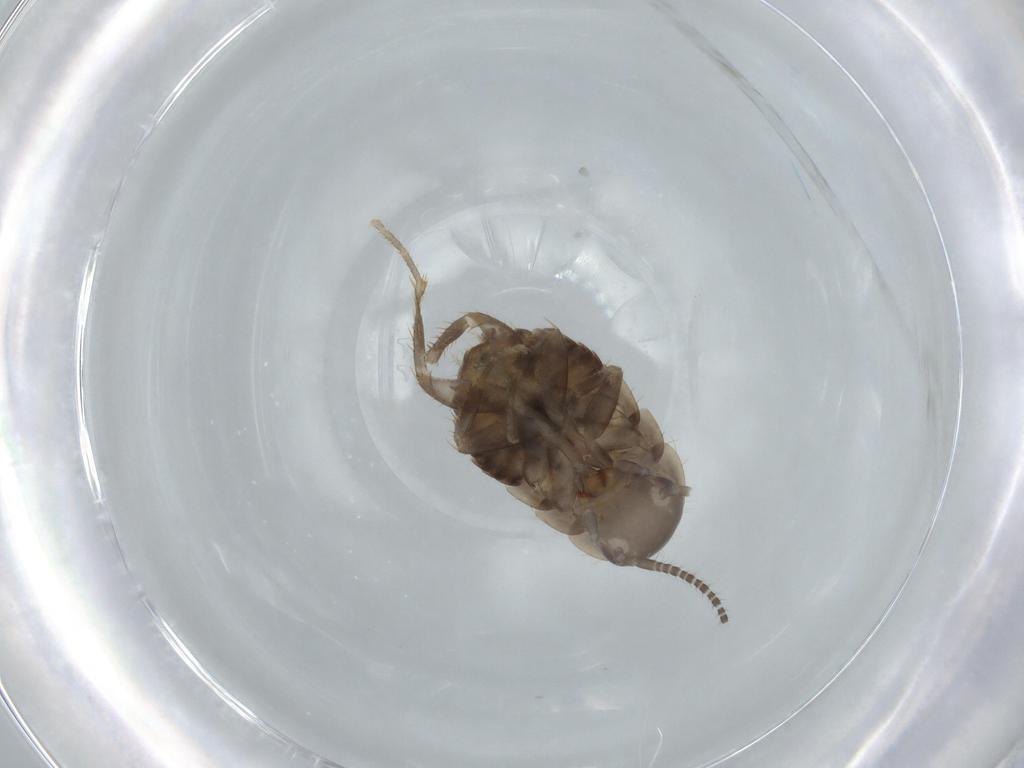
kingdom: Animalia
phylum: Arthropoda
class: Insecta
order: Blattodea
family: Ectobiidae
